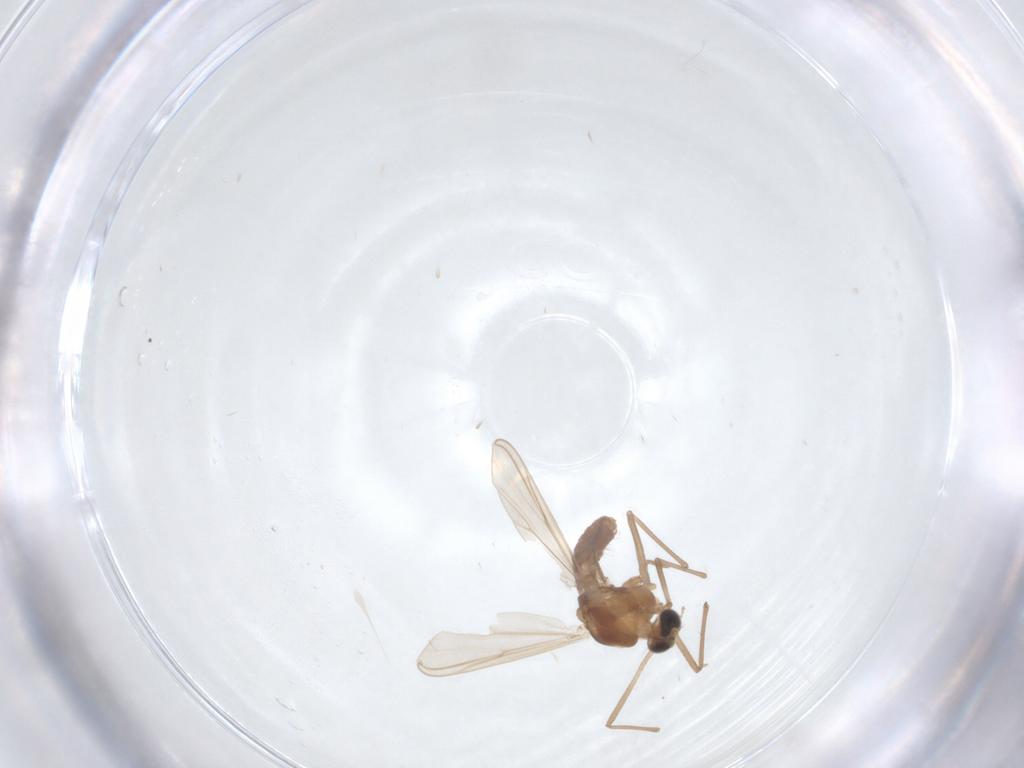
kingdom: Animalia
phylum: Arthropoda
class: Insecta
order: Diptera
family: Chironomidae
